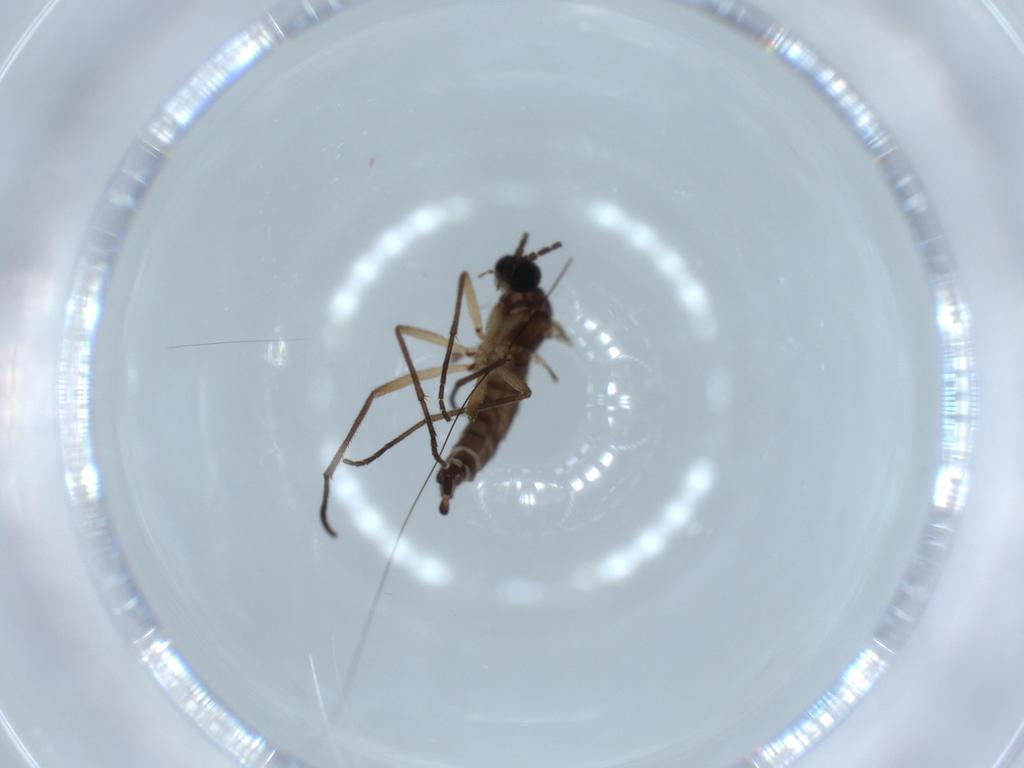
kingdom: Animalia
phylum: Arthropoda
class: Insecta
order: Diptera
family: Sciaridae
